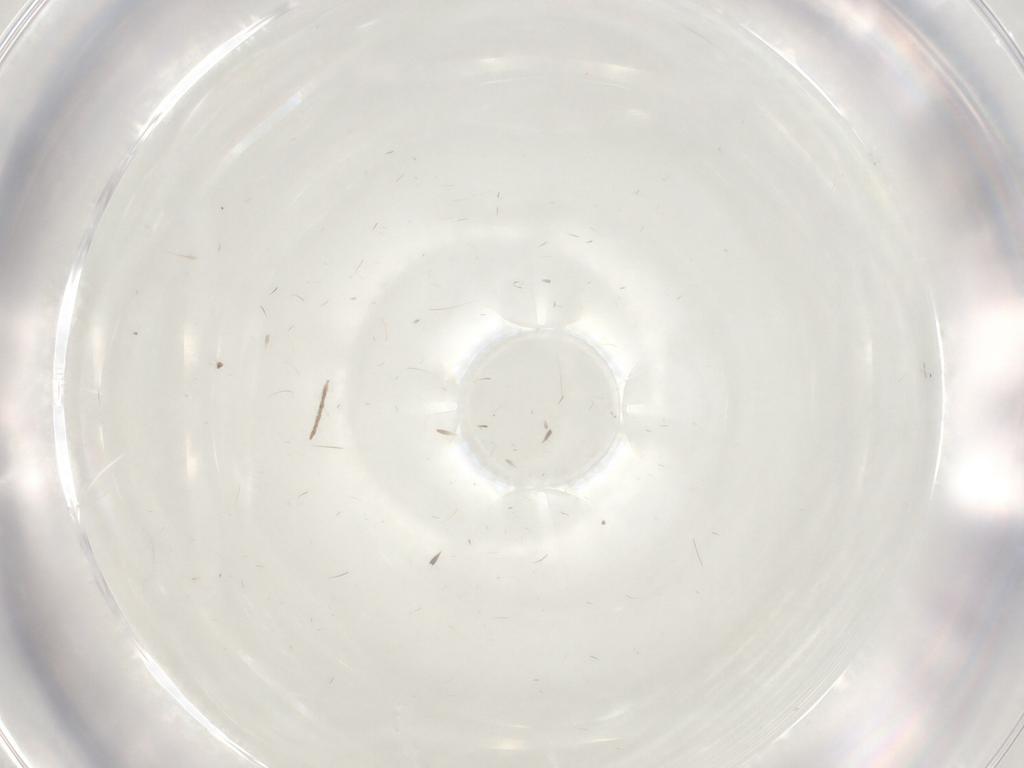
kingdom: Animalia
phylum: Arthropoda
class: Insecta
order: Diptera
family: Chironomidae
